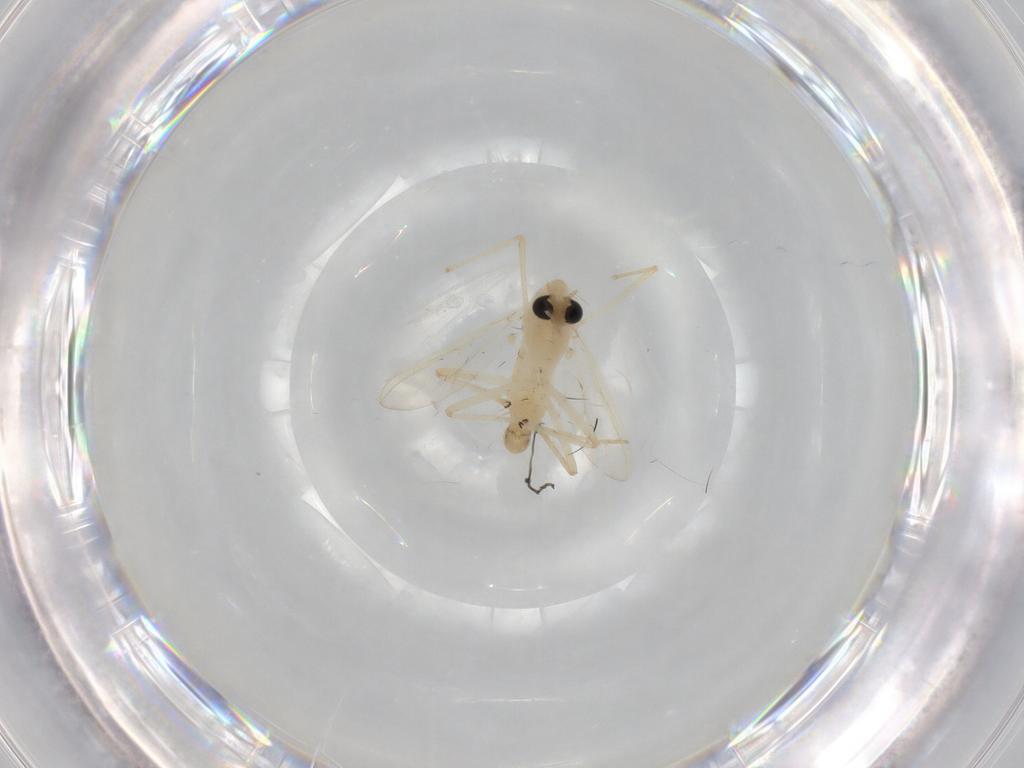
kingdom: Animalia
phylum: Arthropoda
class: Insecta
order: Diptera
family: Chironomidae
